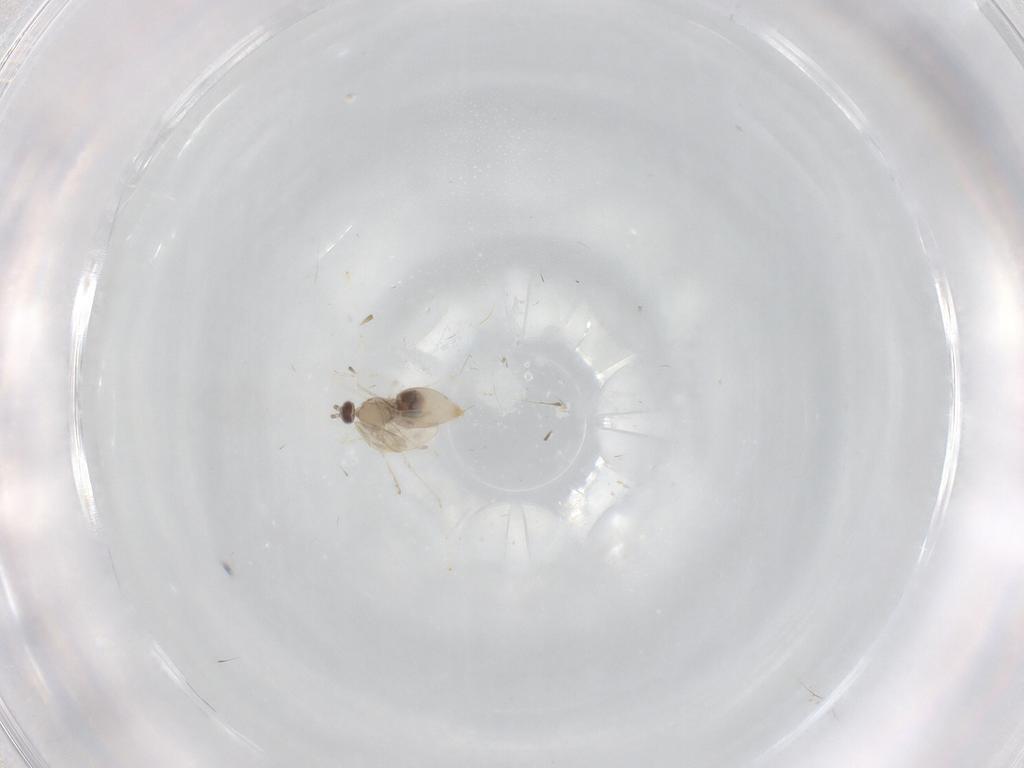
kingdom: Animalia
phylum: Arthropoda
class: Insecta
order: Diptera
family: Cecidomyiidae
